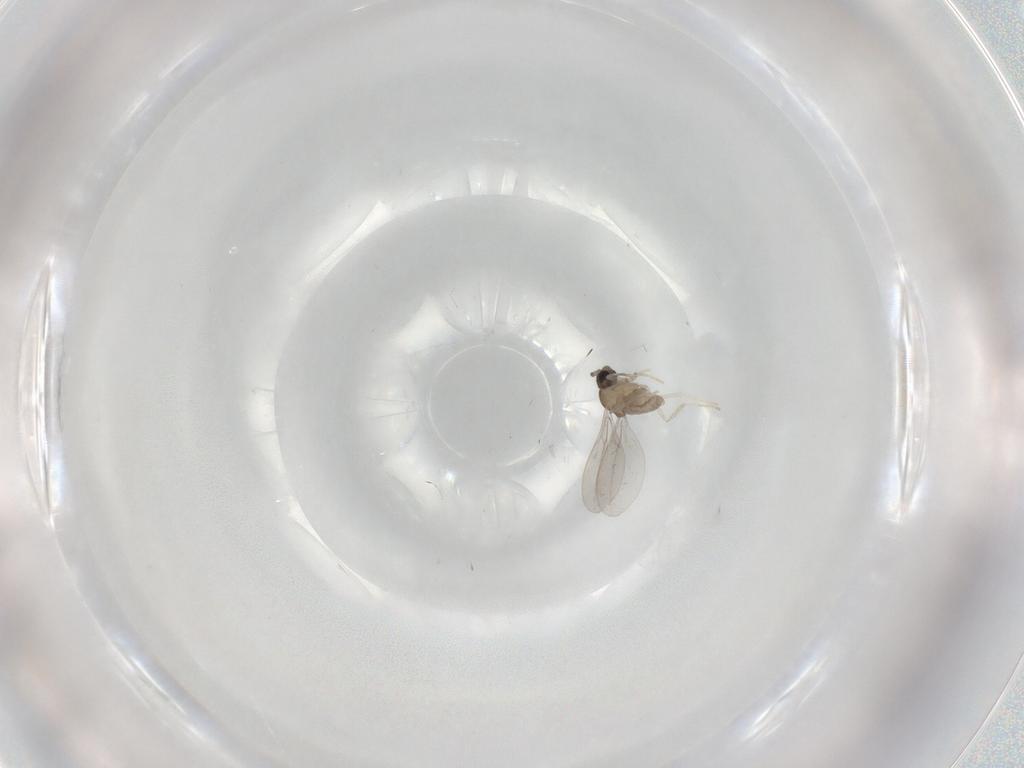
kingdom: Animalia
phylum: Arthropoda
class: Insecta
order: Diptera
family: Cecidomyiidae
